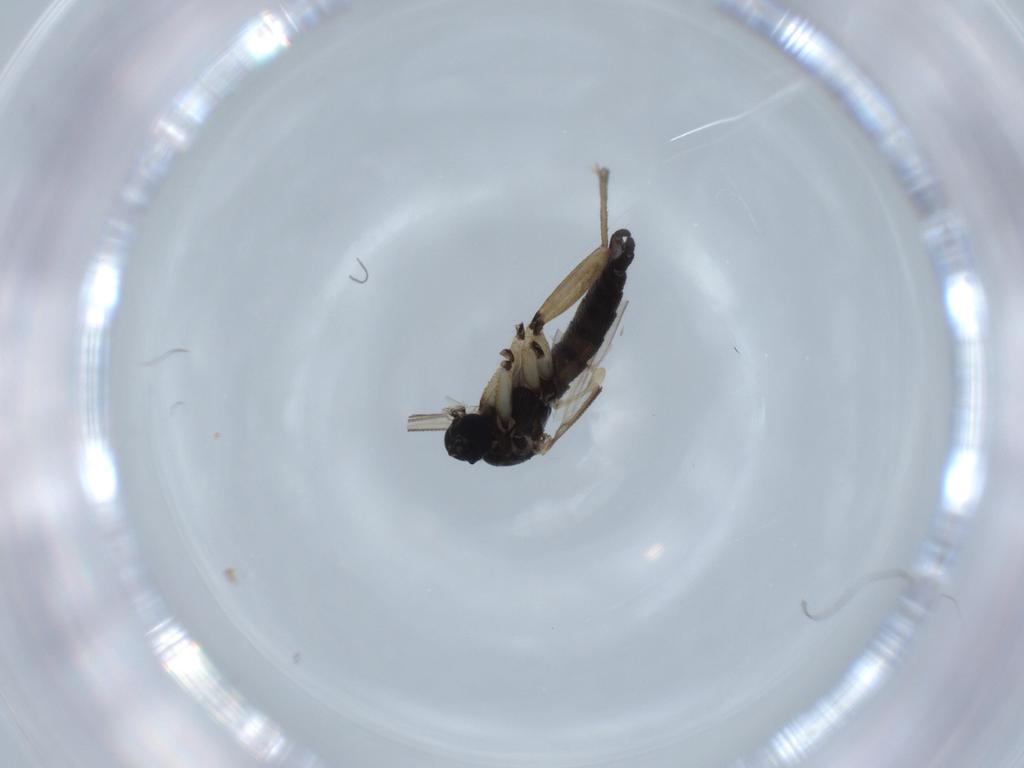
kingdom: Animalia
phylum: Arthropoda
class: Insecta
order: Diptera
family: Sciaridae
